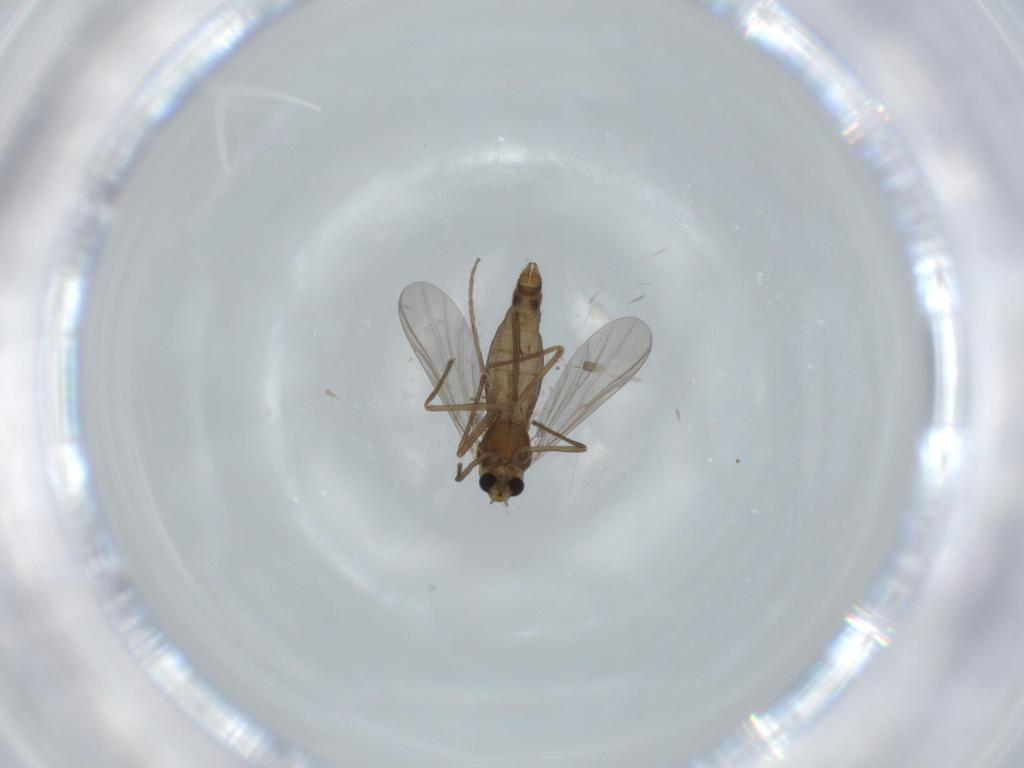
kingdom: Animalia
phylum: Arthropoda
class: Insecta
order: Diptera
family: Chironomidae
